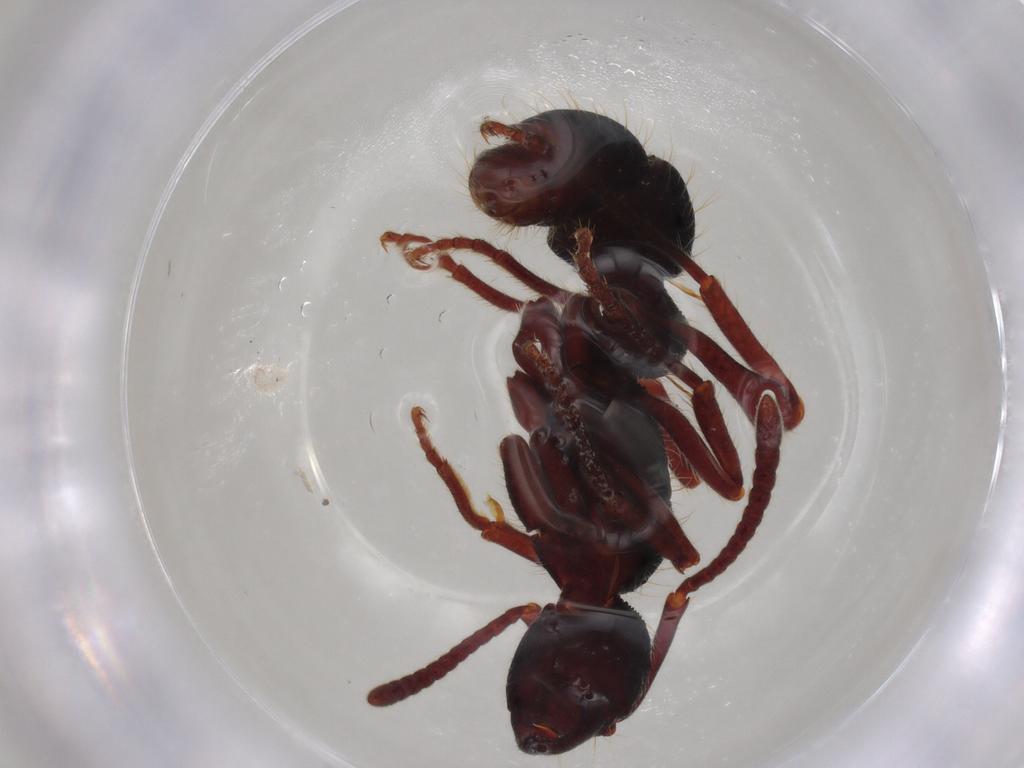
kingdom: Animalia
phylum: Arthropoda
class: Insecta
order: Hymenoptera
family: Formicidae
